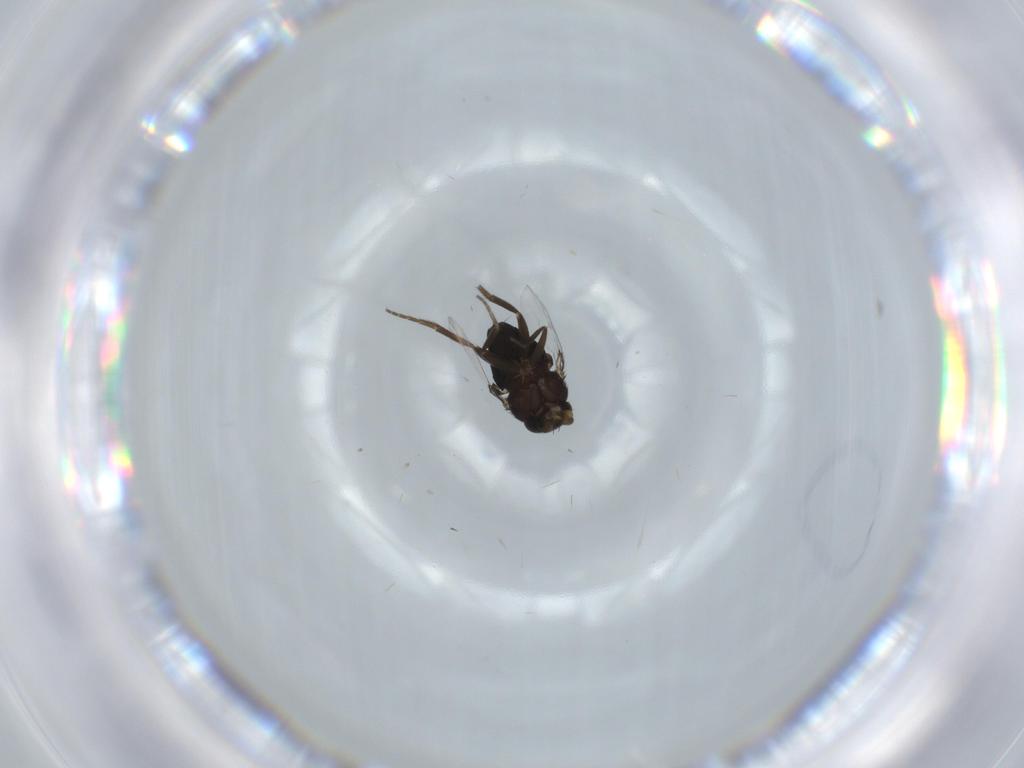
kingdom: Animalia
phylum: Arthropoda
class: Insecta
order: Diptera
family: Phoridae
